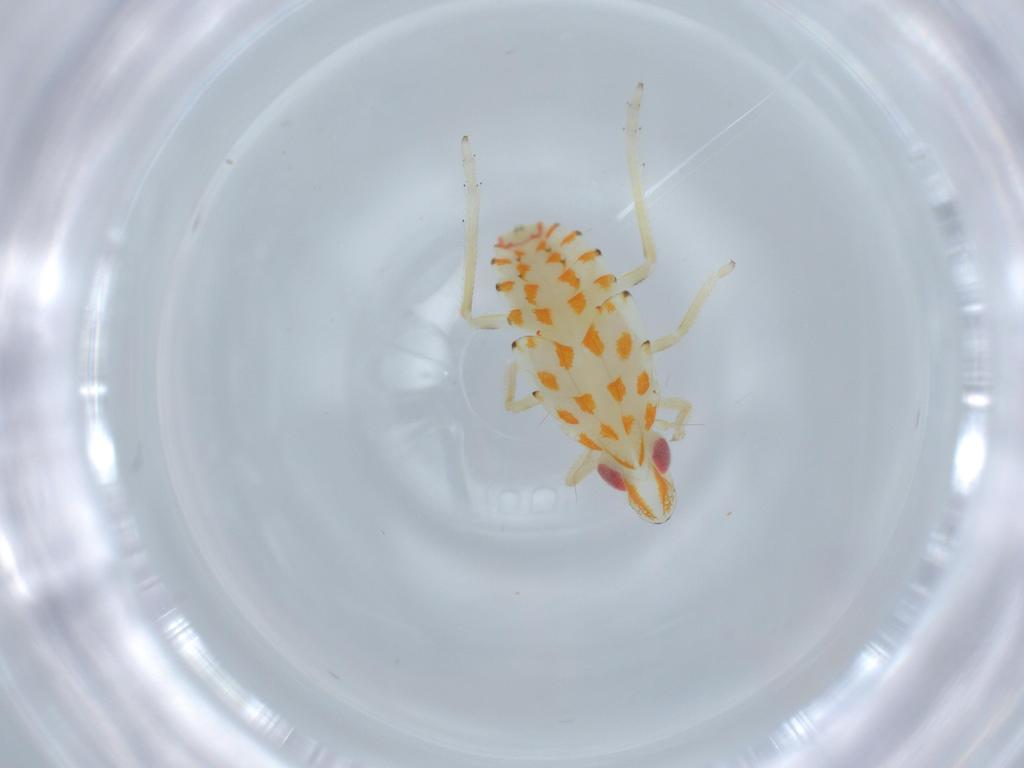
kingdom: Animalia
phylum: Arthropoda
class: Insecta
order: Hemiptera
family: Tropiduchidae
